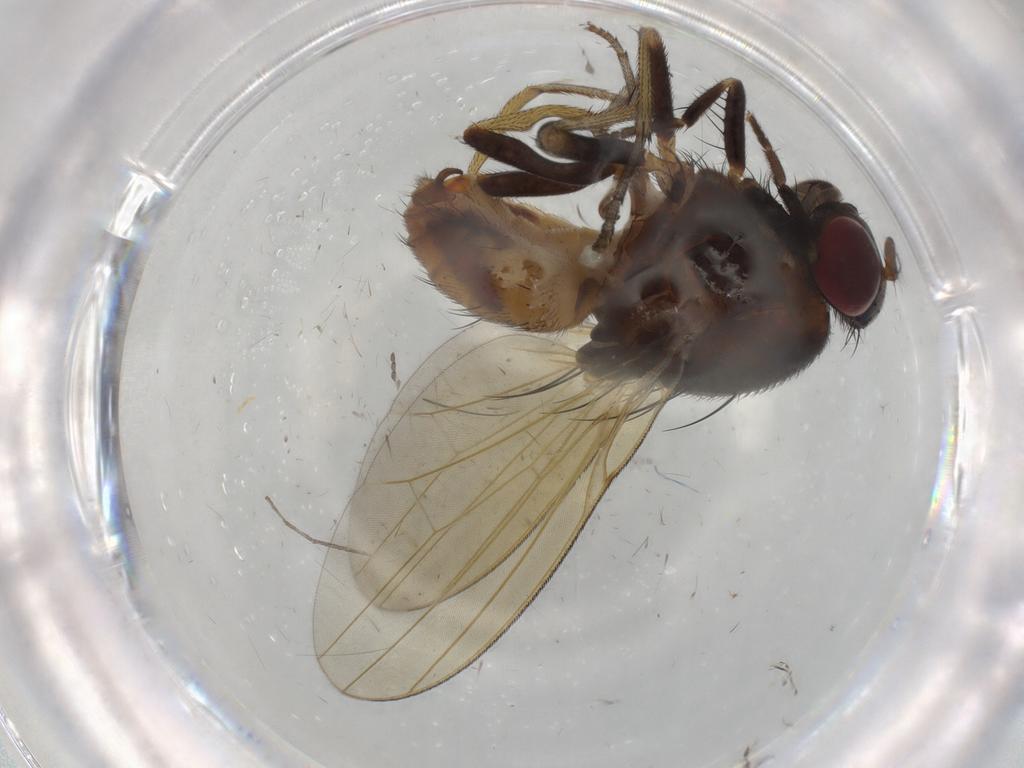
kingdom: Animalia
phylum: Arthropoda
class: Insecta
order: Diptera
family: Cecidomyiidae
